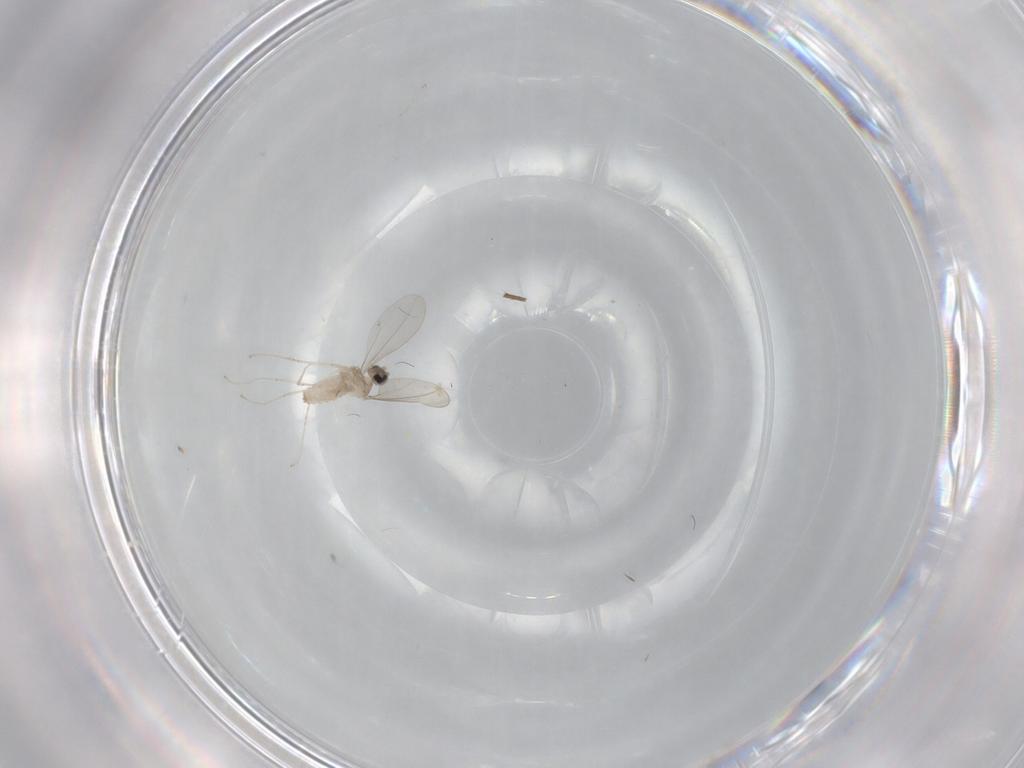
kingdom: Animalia
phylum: Arthropoda
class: Insecta
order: Diptera
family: Cecidomyiidae
